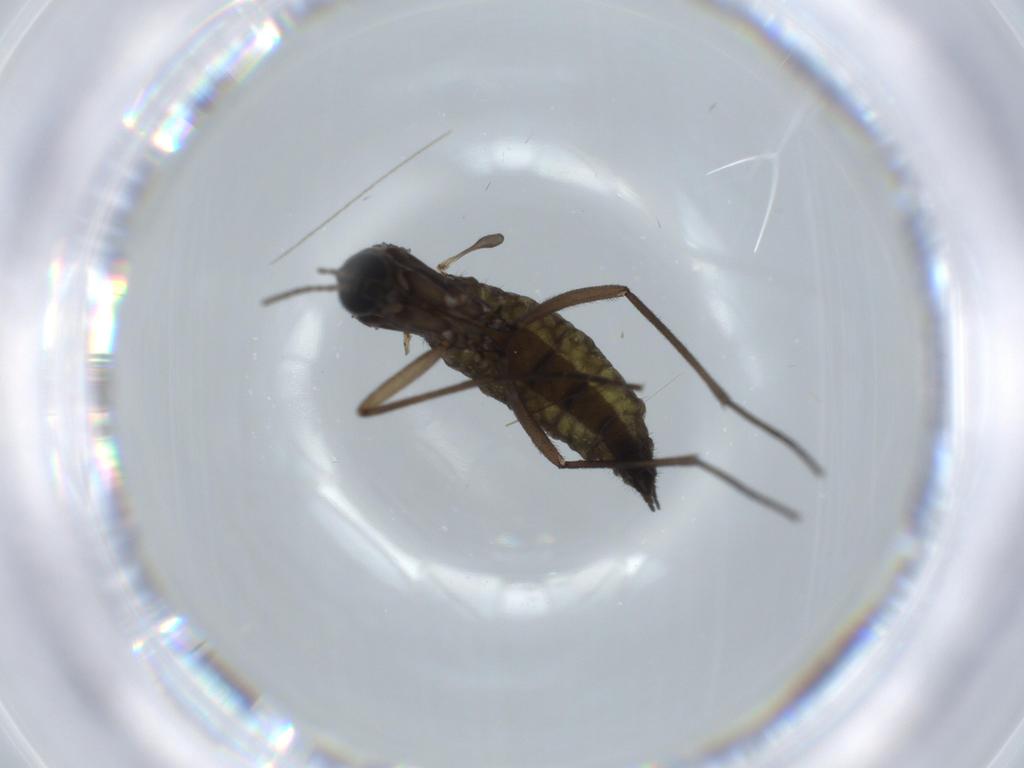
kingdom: Animalia
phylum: Arthropoda
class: Insecta
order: Diptera
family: Sciaridae
